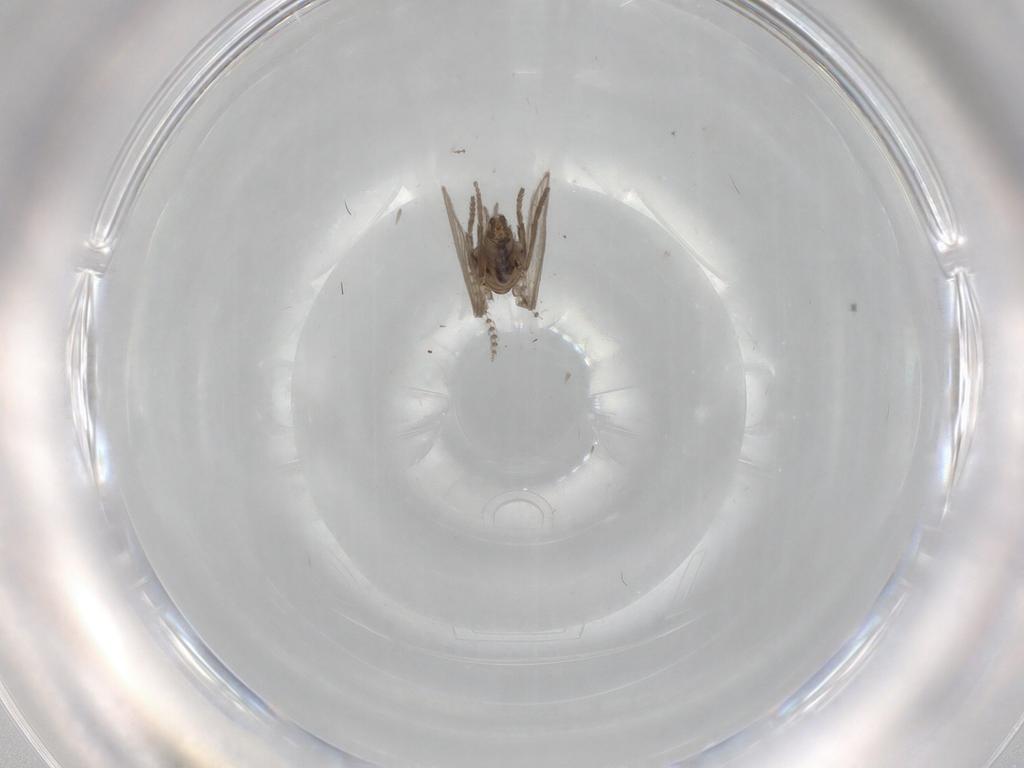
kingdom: Animalia
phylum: Arthropoda
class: Insecta
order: Diptera
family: Psychodidae
